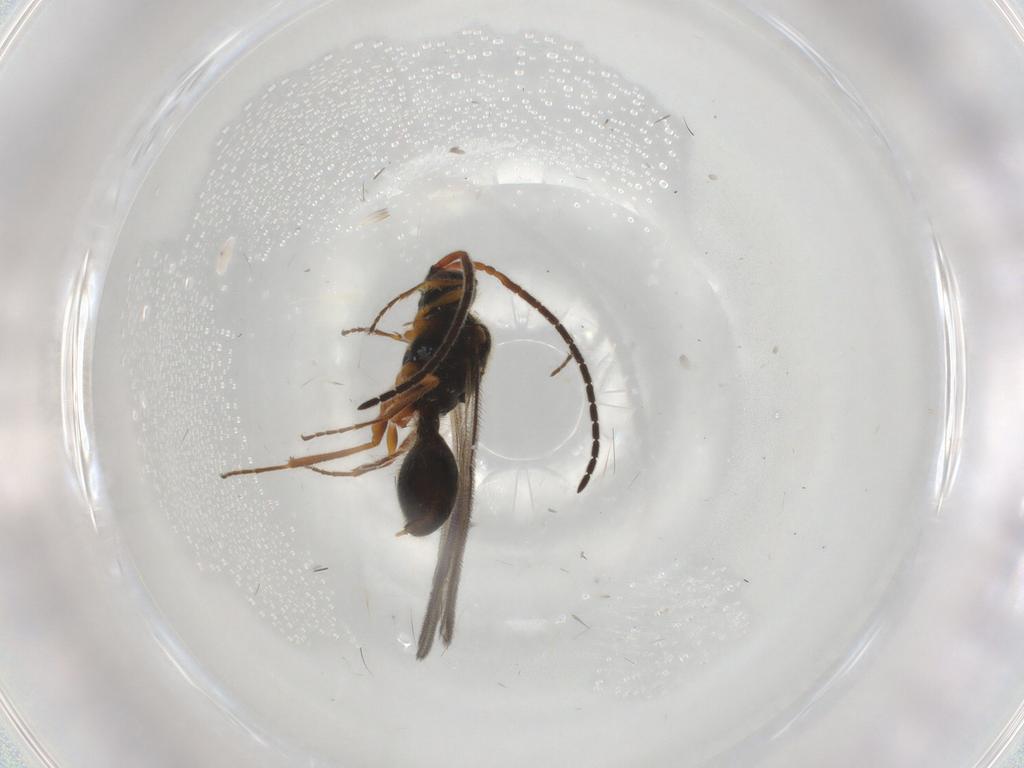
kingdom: Animalia
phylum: Arthropoda
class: Insecta
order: Hymenoptera
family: Diapriidae
